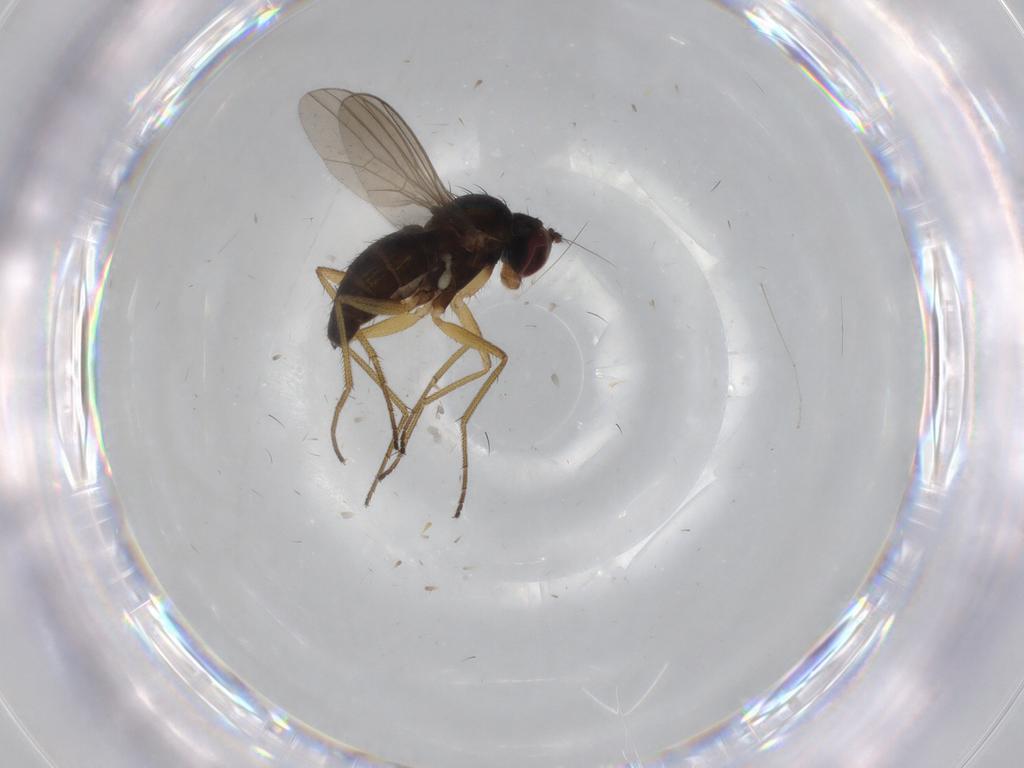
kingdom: Animalia
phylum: Arthropoda
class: Insecta
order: Diptera
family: Dolichopodidae
